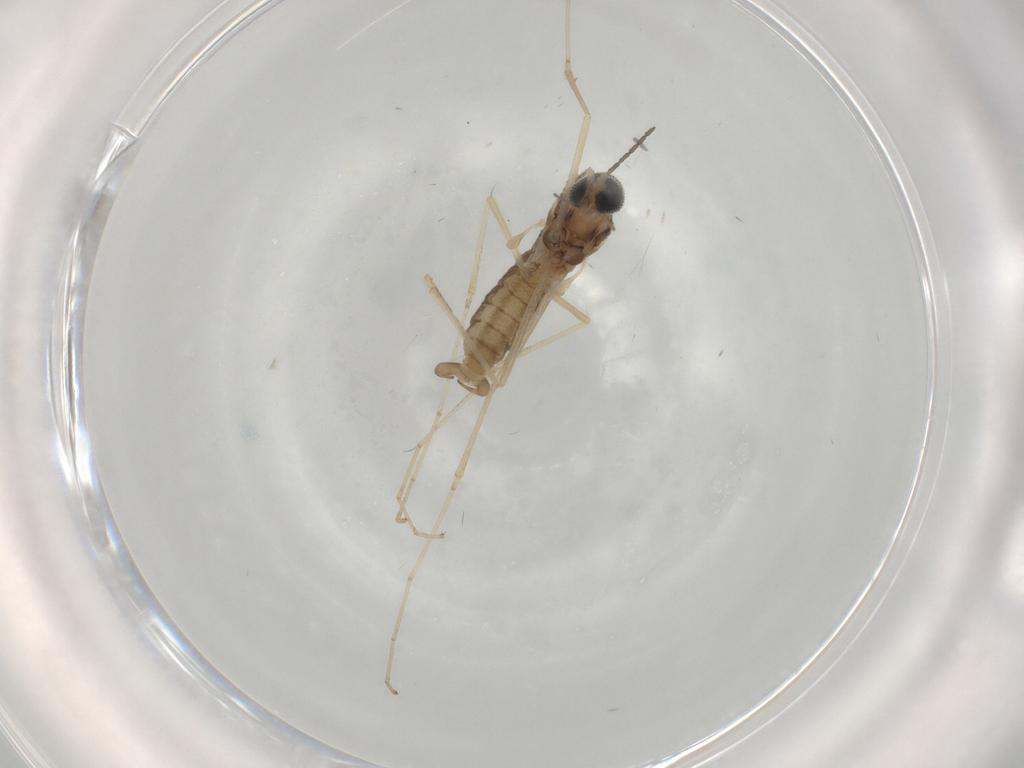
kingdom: Animalia
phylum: Arthropoda
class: Insecta
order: Diptera
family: Cecidomyiidae
